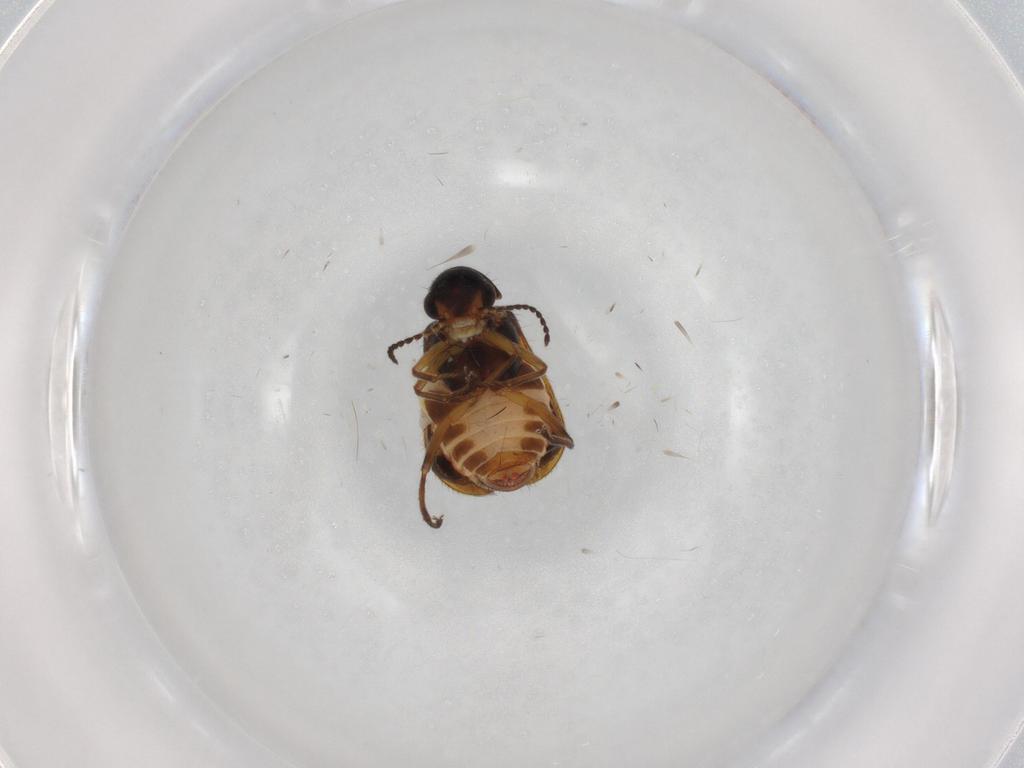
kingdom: Animalia
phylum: Arthropoda
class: Insecta
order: Coleoptera
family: Melyridae
